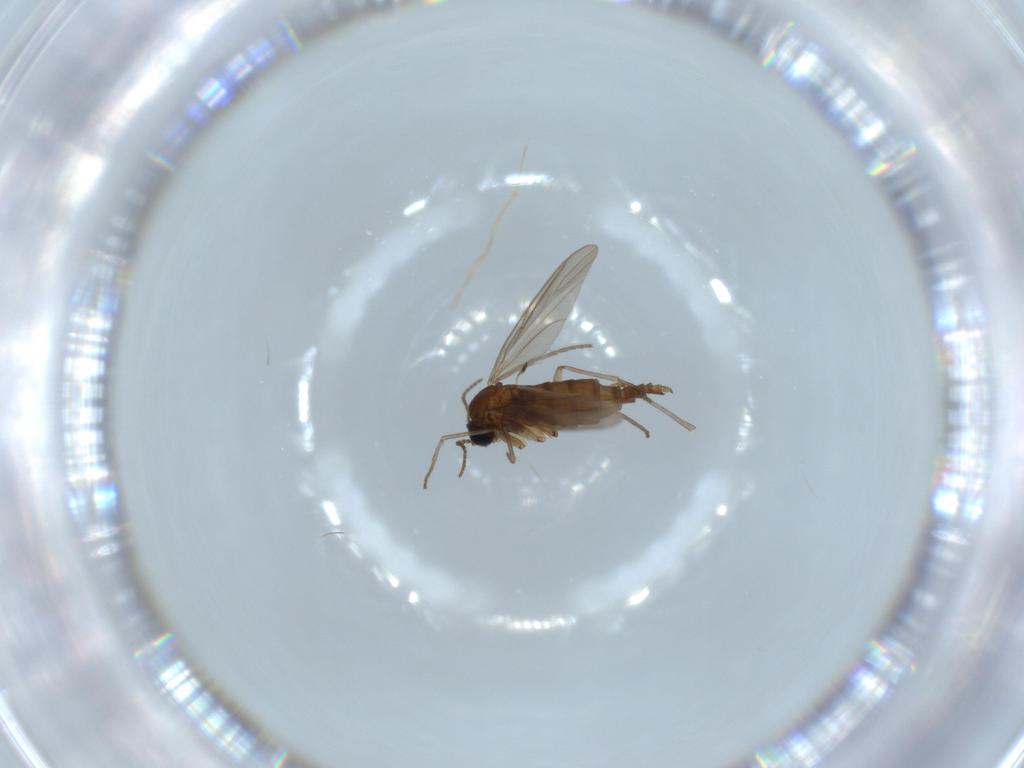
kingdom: Animalia
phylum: Arthropoda
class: Insecta
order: Diptera
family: Sciaridae
